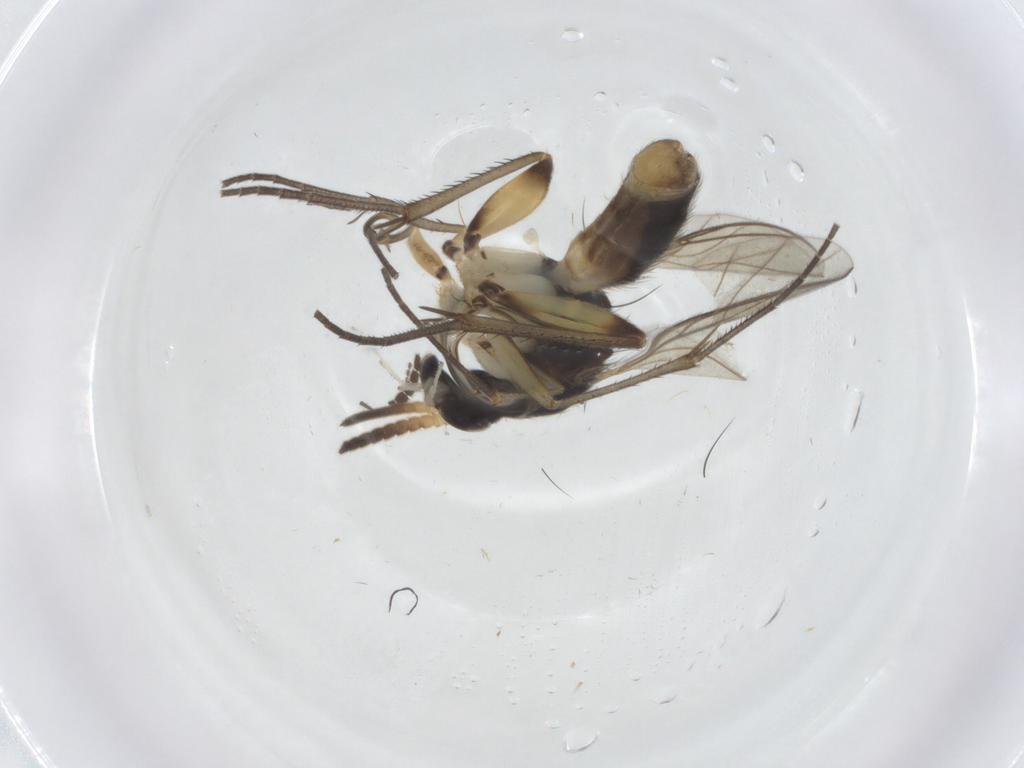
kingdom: Animalia
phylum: Arthropoda
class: Insecta
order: Diptera
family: Mycetophilidae
